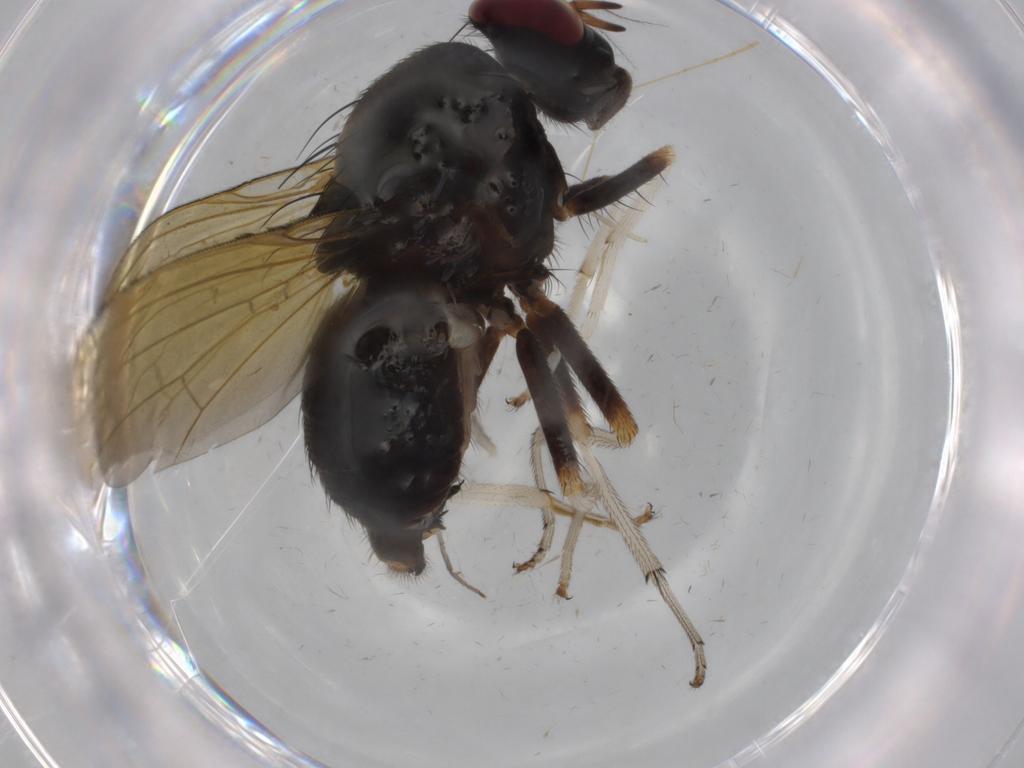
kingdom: Animalia
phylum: Arthropoda
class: Insecta
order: Diptera
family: Lauxaniidae
